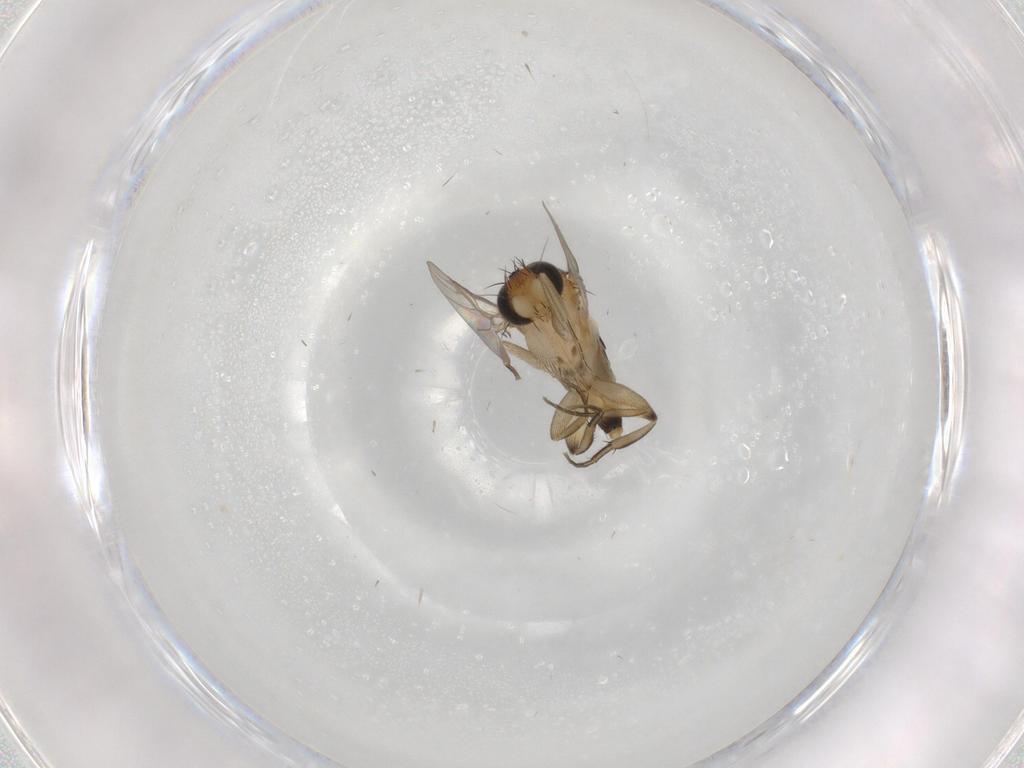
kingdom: Animalia
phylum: Arthropoda
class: Insecta
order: Diptera
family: Phoridae
